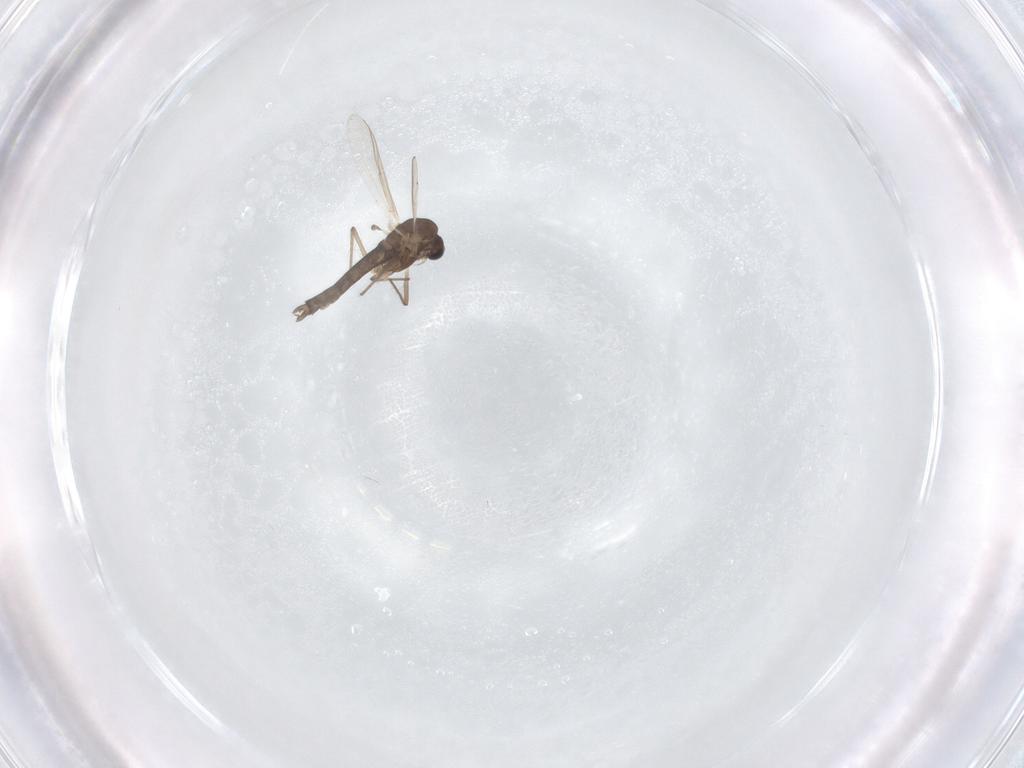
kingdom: Animalia
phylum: Arthropoda
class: Insecta
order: Diptera
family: Chironomidae
